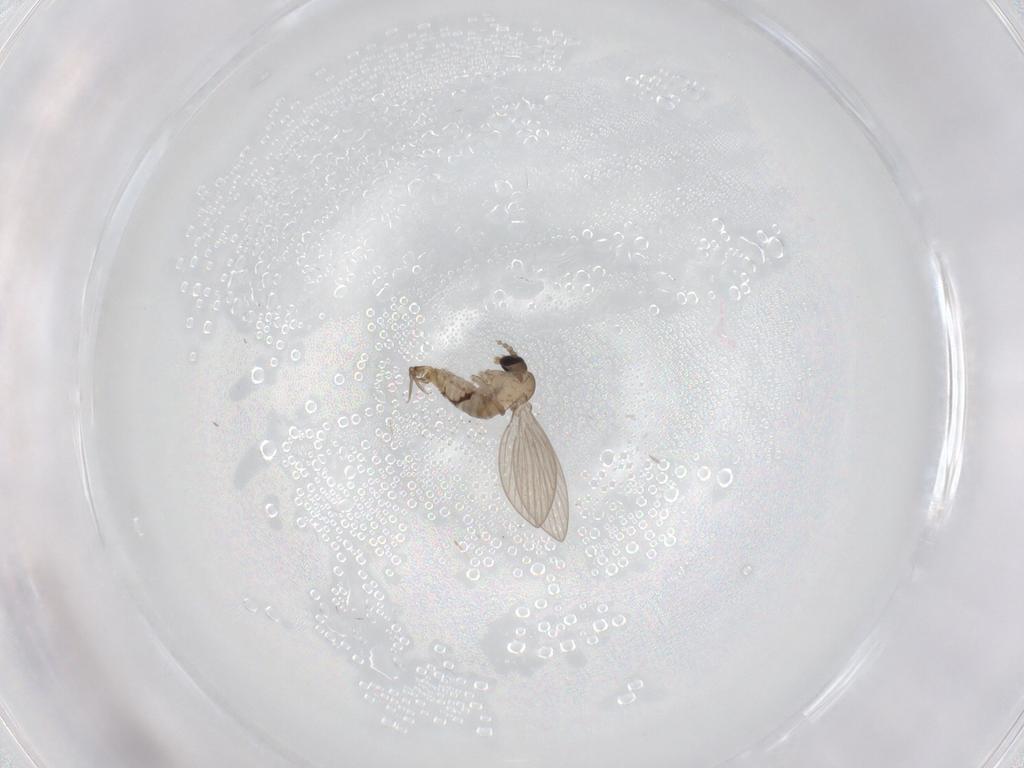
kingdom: Animalia
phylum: Arthropoda
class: Insecta
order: Diptera
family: Psychodidae
